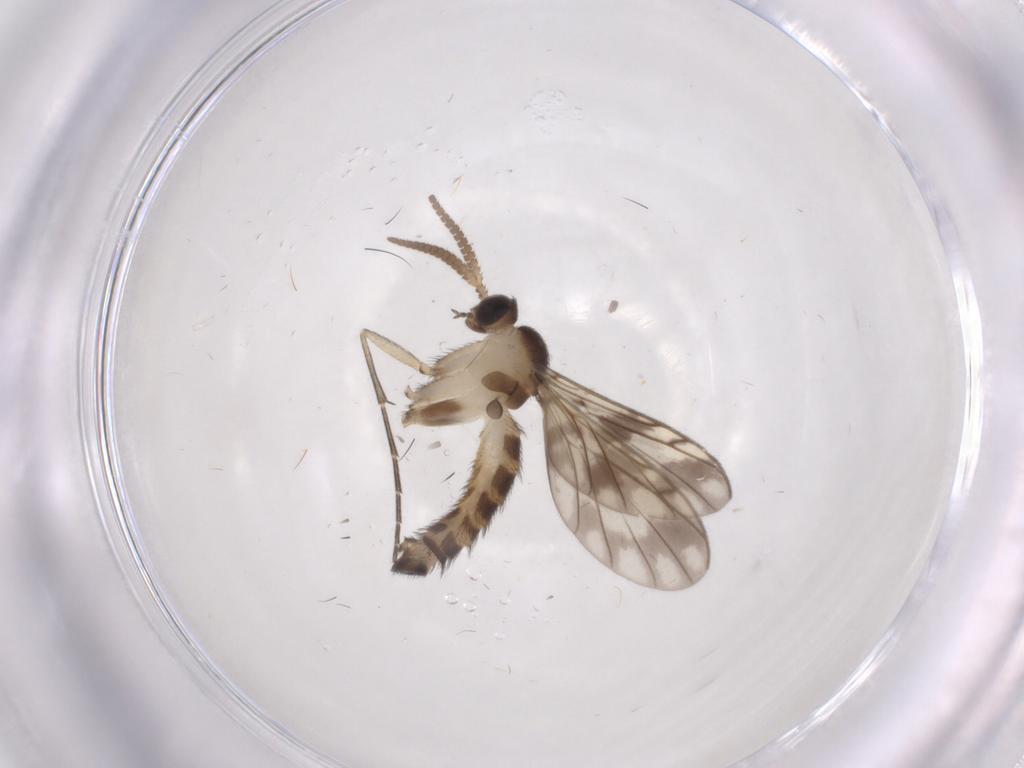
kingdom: Animalia
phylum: Arthropoda
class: Insecta
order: Diptera
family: Keroplatidae
